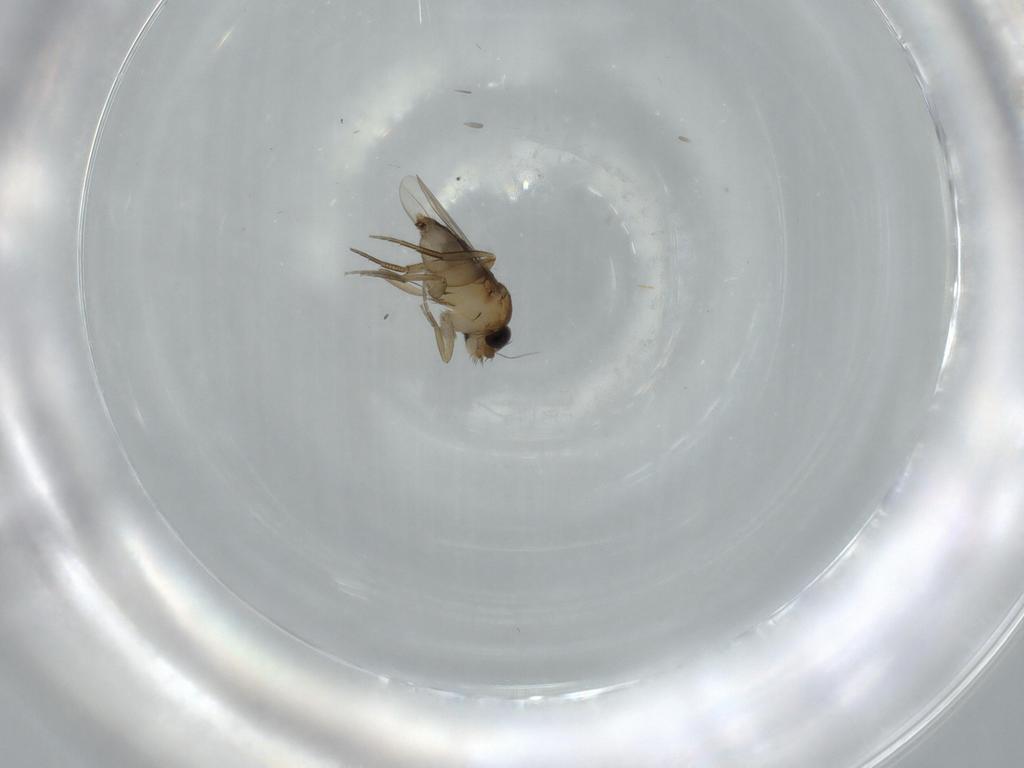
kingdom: Animalia
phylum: Arthropoda
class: Insecta
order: Diptera
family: Phoridae
